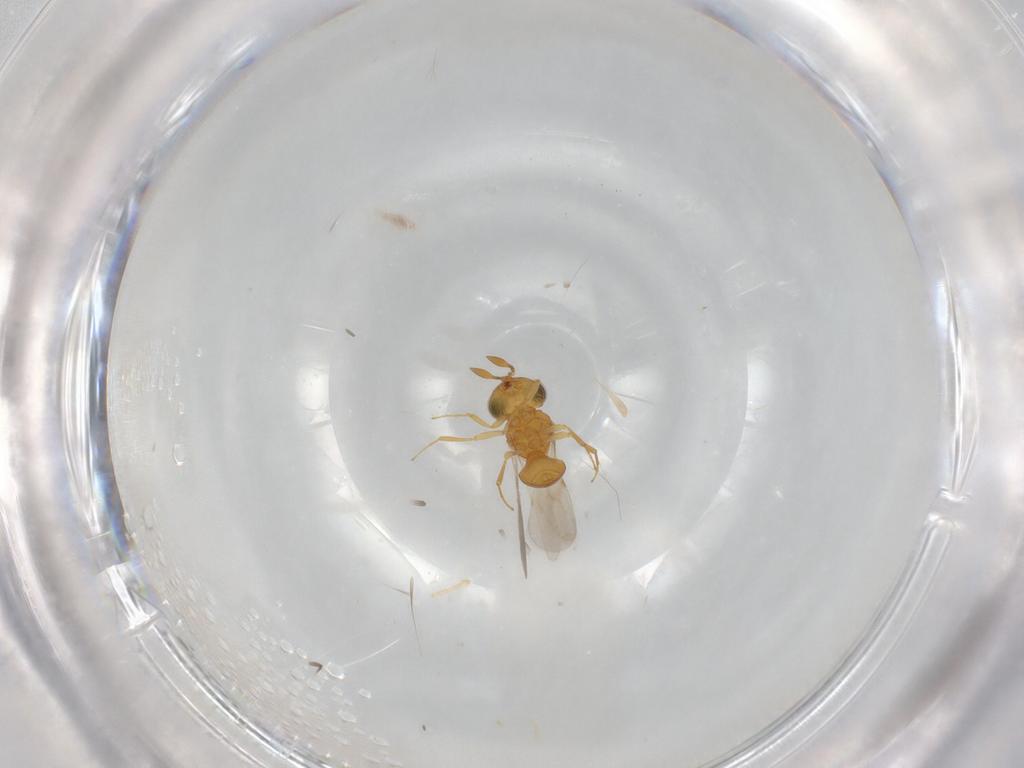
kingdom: Animalia
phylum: Arthropoda
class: Insecta
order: Hymenoptera
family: Scelionidae
